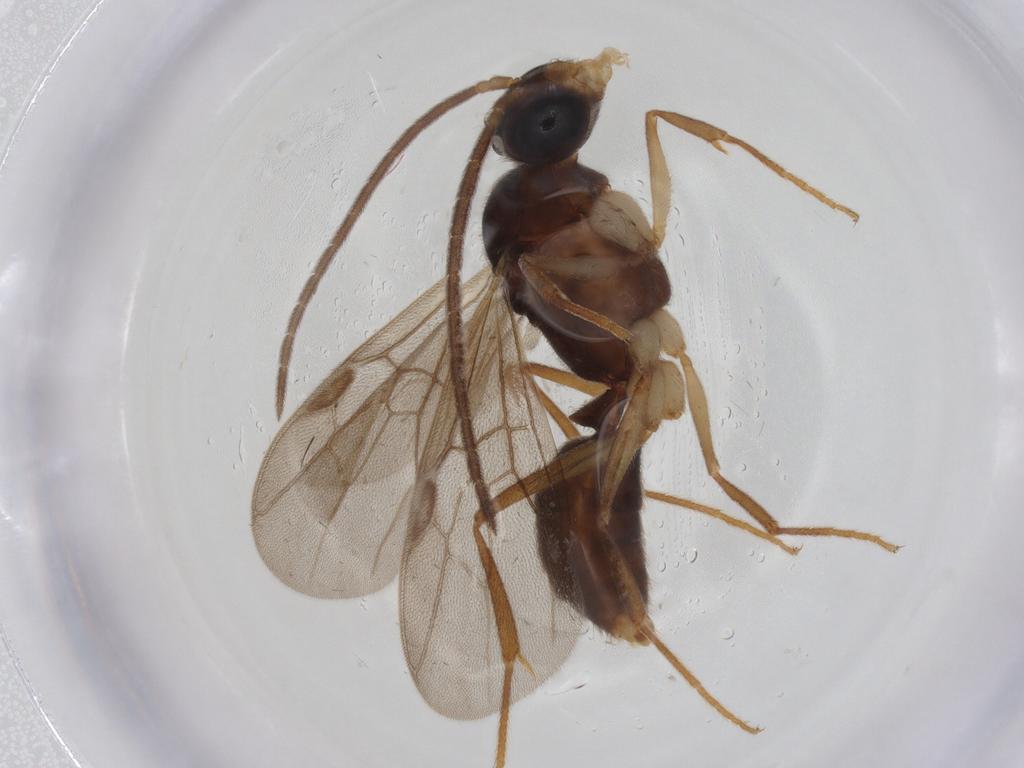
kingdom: Animalia
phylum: Arthropoda
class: Insecta
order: Hymenoptera
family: Formicidae
